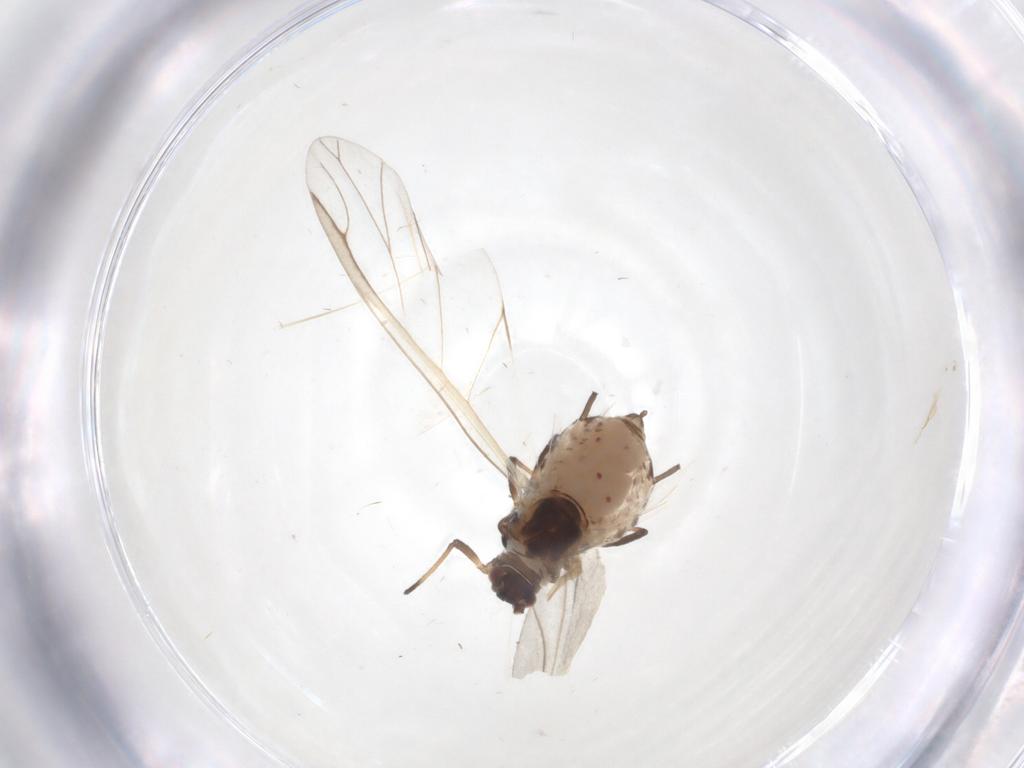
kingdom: Animalia
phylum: Arthropoda
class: Insecta
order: Hemiptera
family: Aphididae
